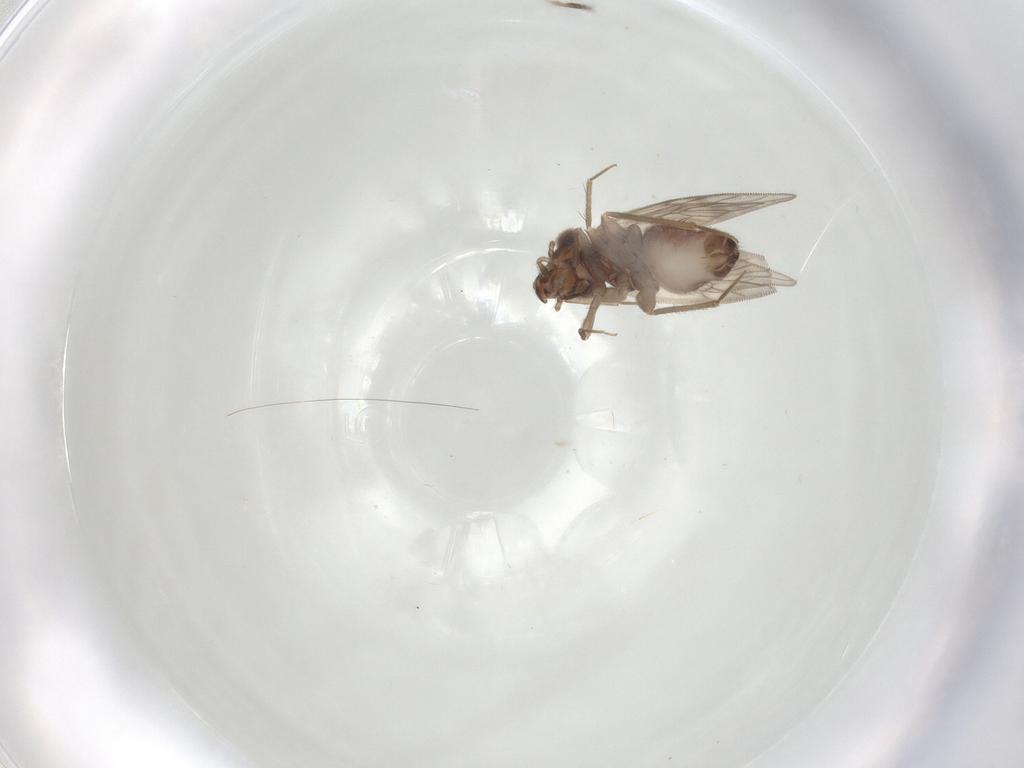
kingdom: Animalia
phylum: Arthropoda
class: Insecta
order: Psocodea
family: Lepidopsocidae
